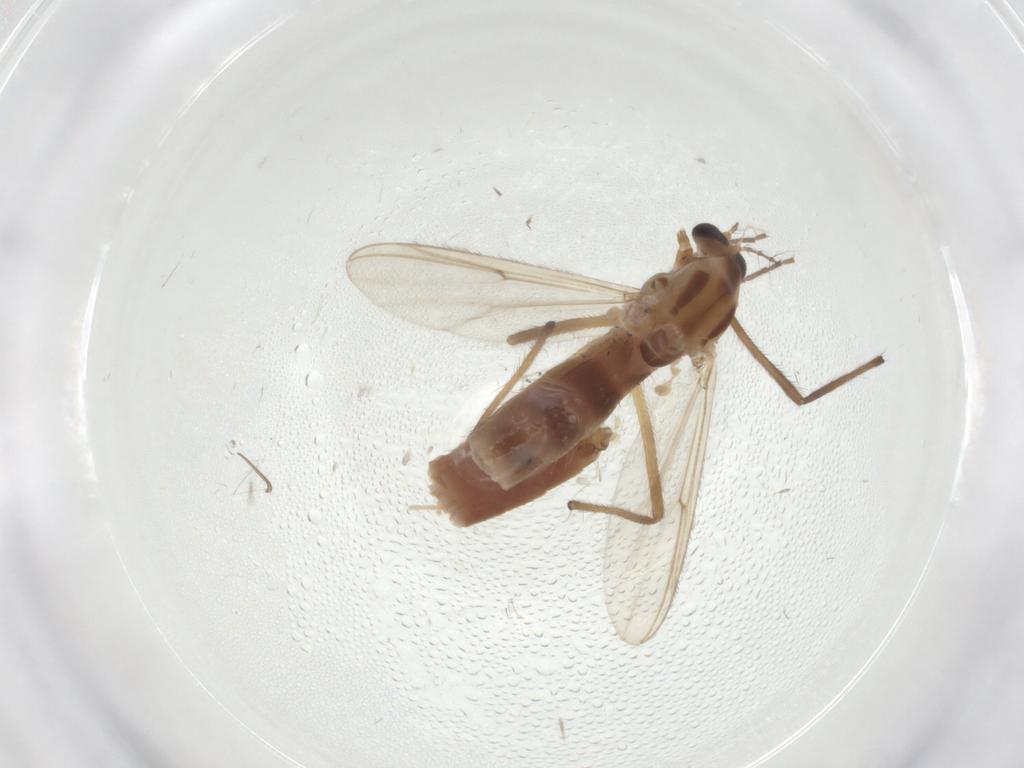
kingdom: Animalia
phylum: Arthropoda
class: Insecta
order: Diptera
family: Chironomidae
